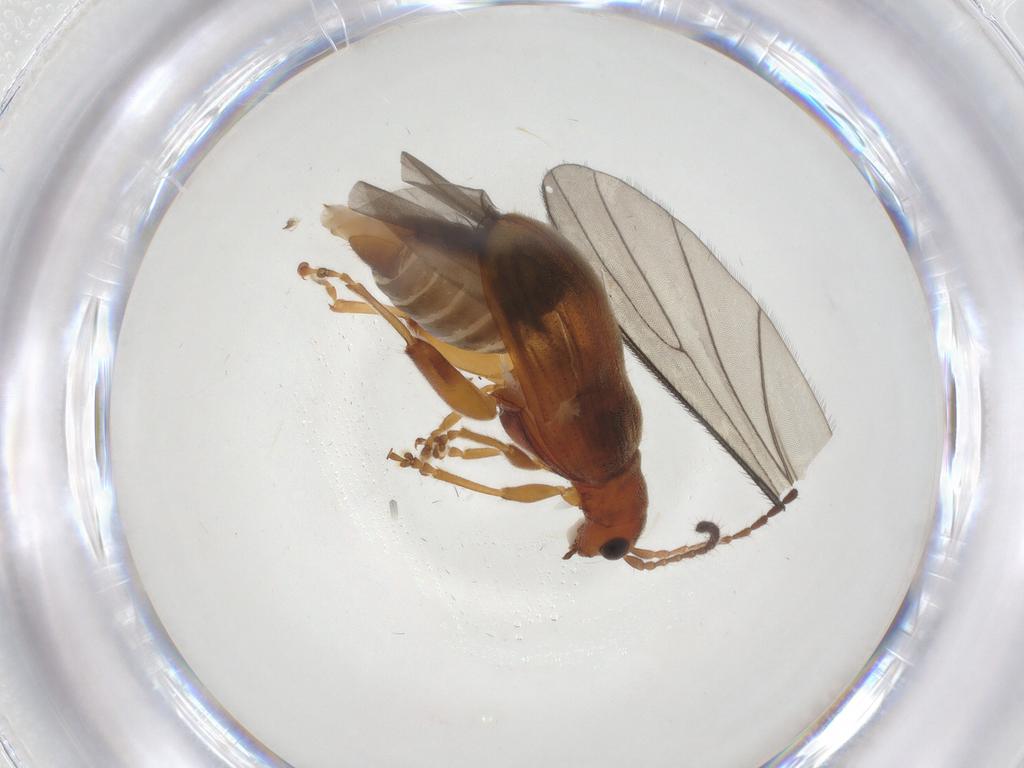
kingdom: Animalia
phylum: Arthropoda
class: Insecta
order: Coleoptera
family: Chrysomelidae
